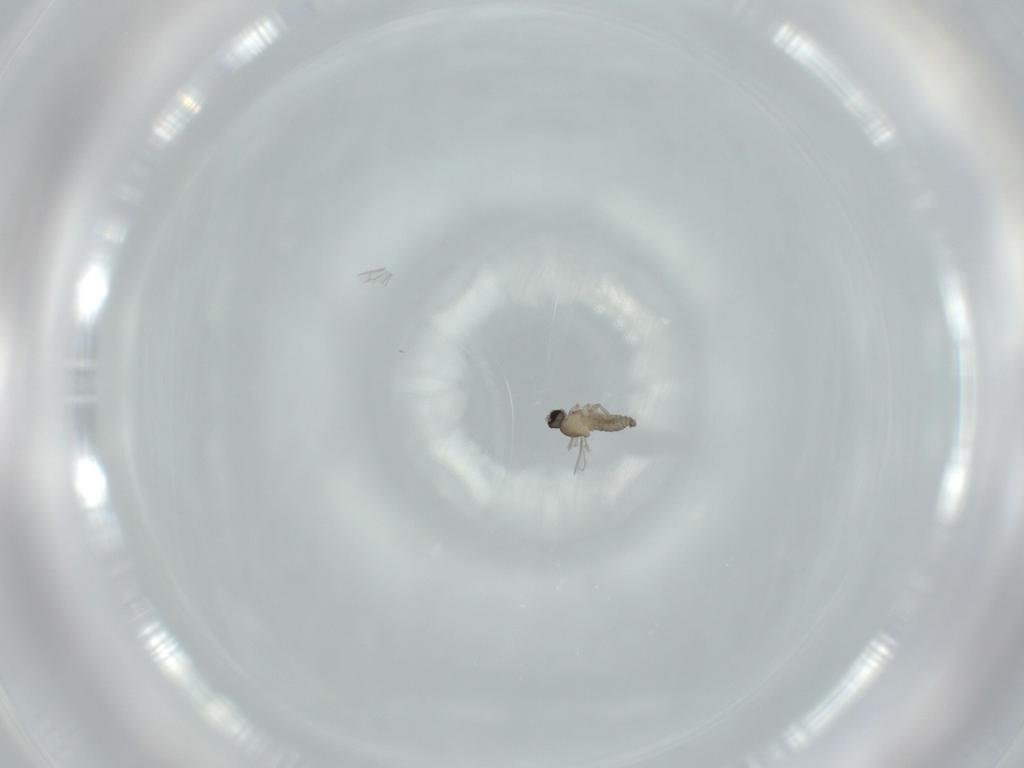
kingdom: Animalia
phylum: Arthropoda
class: Insecta
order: Diptera
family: Cecidomyiidae
